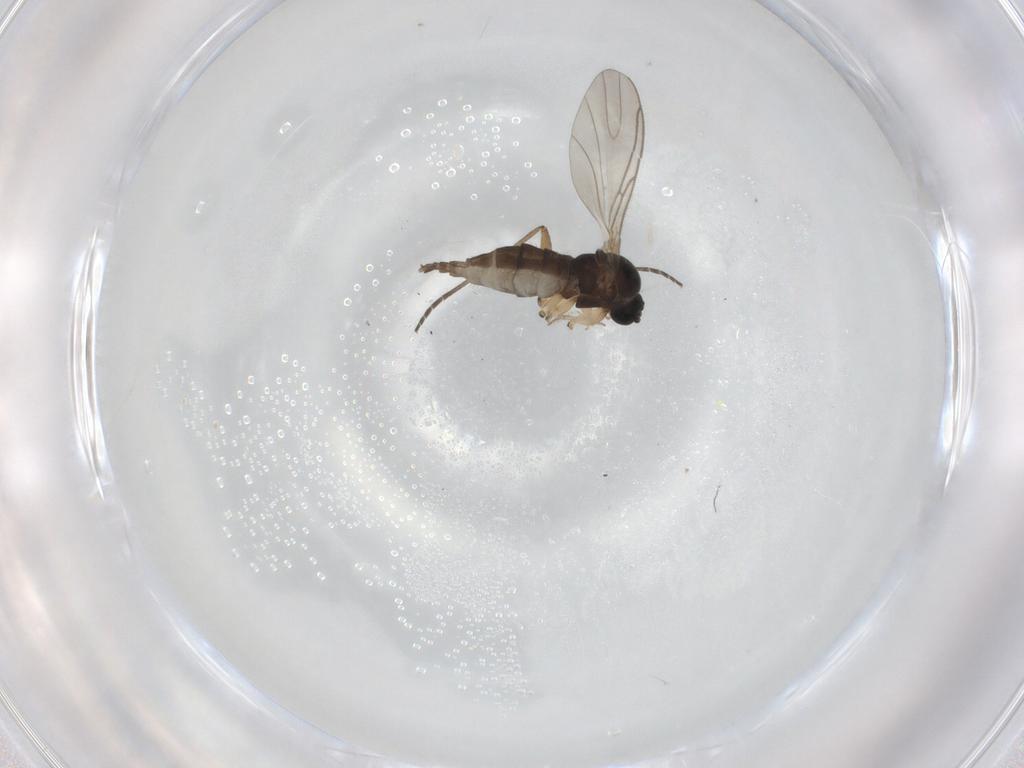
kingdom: Animalia
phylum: Arthropoda
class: Insecta
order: Diptera
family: Sciaridae
